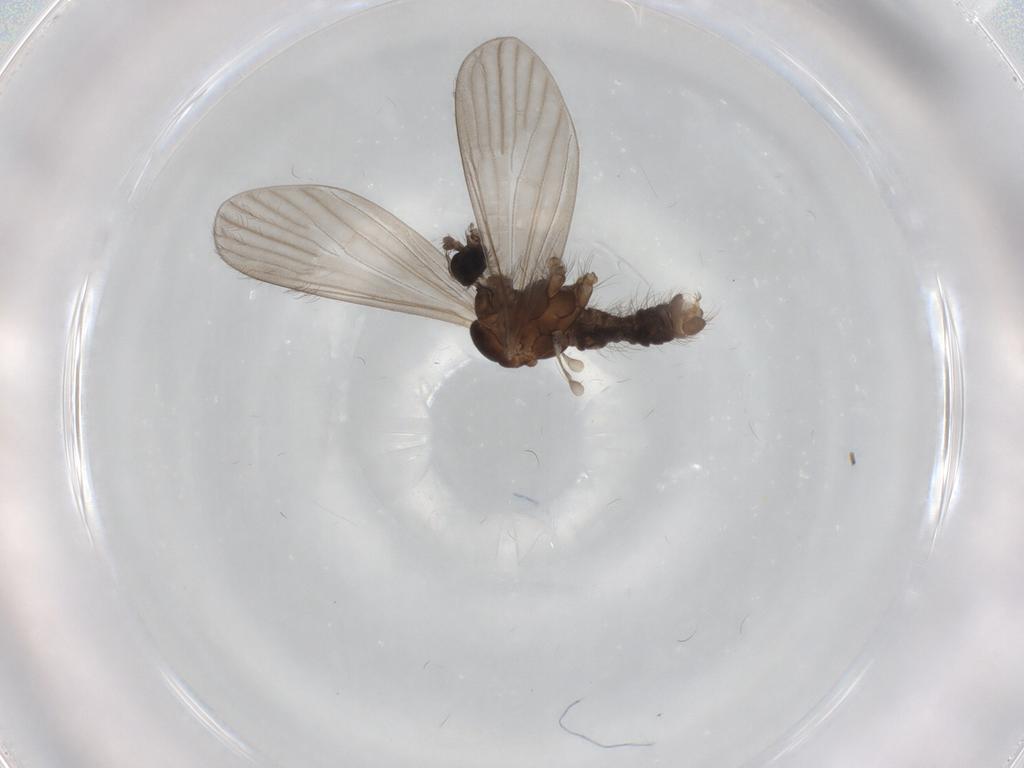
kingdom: Animalia
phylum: Arthropoda
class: Insecta
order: Diptera
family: Limoniidae
